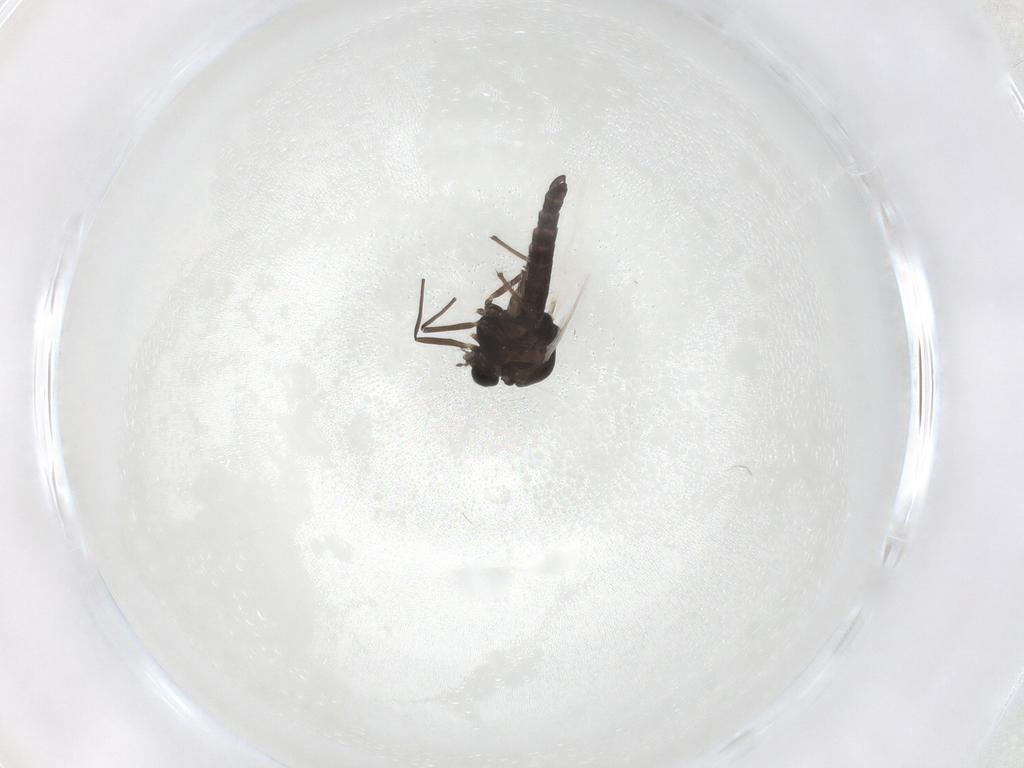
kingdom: Animalia
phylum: Arthropoda
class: Insecta
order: Diptera
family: Chironomidae
